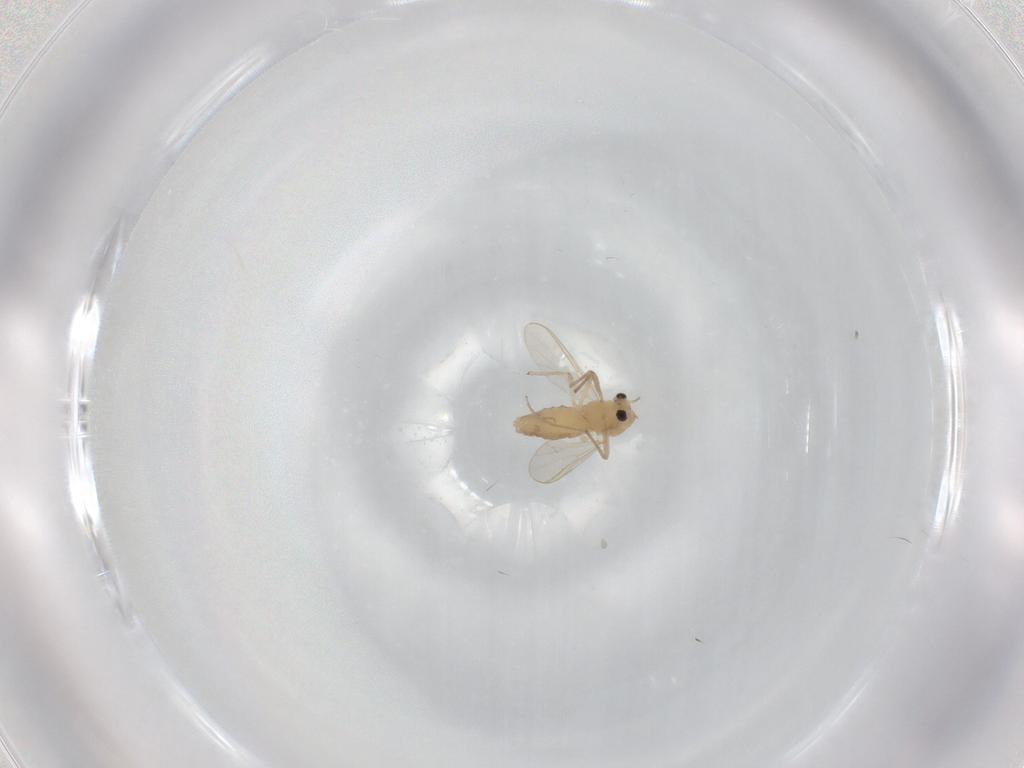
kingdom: Animalia
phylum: Arthropoda
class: Insecta
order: Diptera
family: Chironomidae
